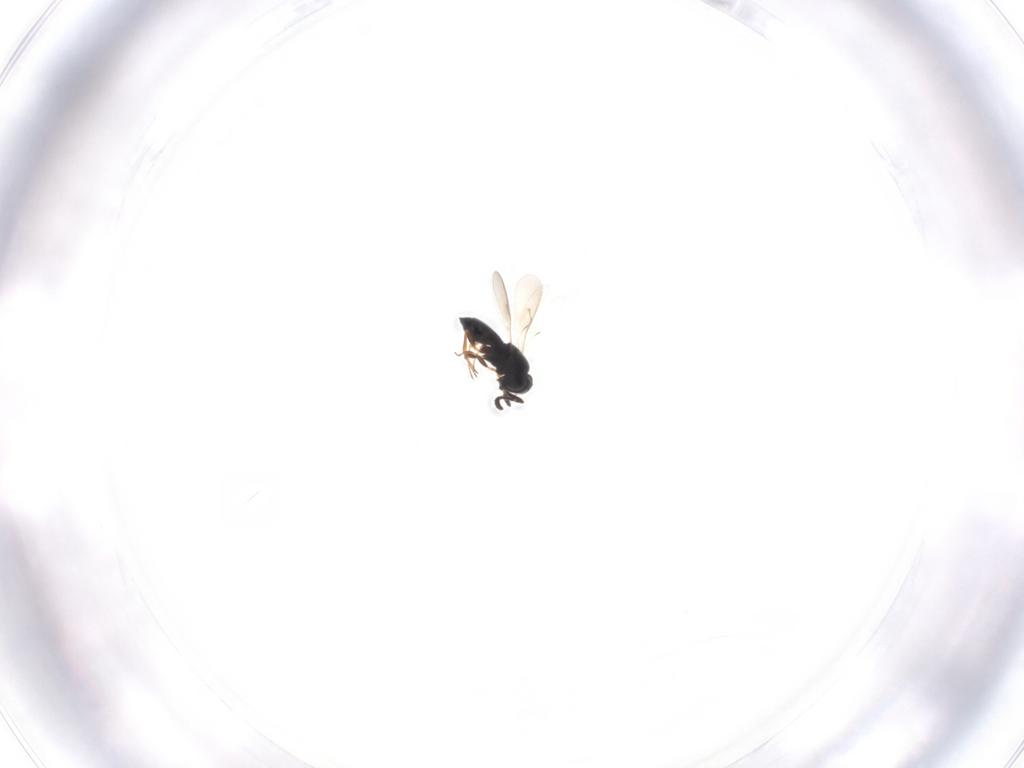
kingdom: Animalia
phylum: Arthropoda
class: Insecta
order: Hymenoptera
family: Scelionidae
